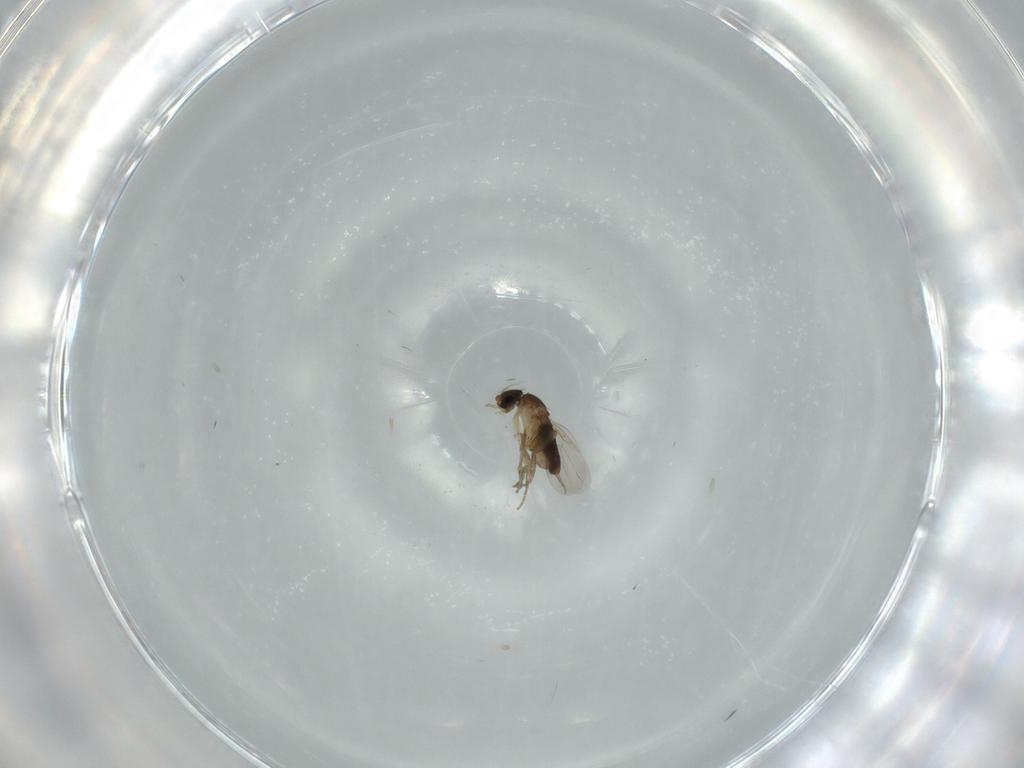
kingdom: Animalia
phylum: Arthropoda
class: Insecta
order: Diptera
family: Phoridae
